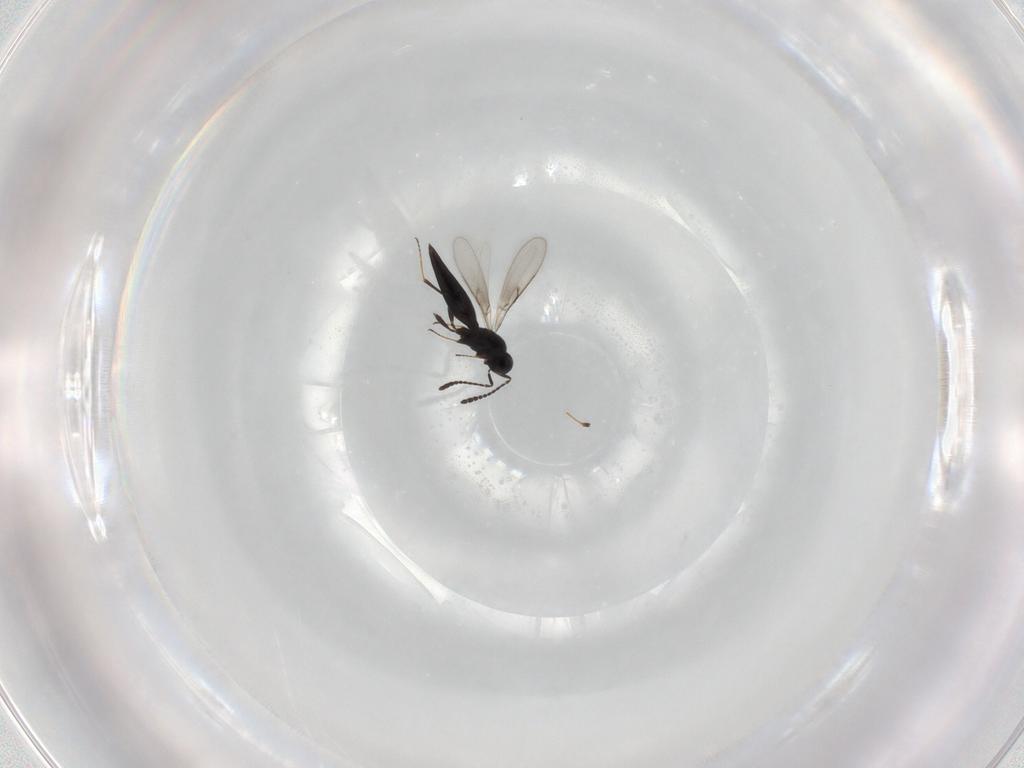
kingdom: Animalia
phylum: Arthropoda
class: Insecta
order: Hymenoptera
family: Scelionidae
